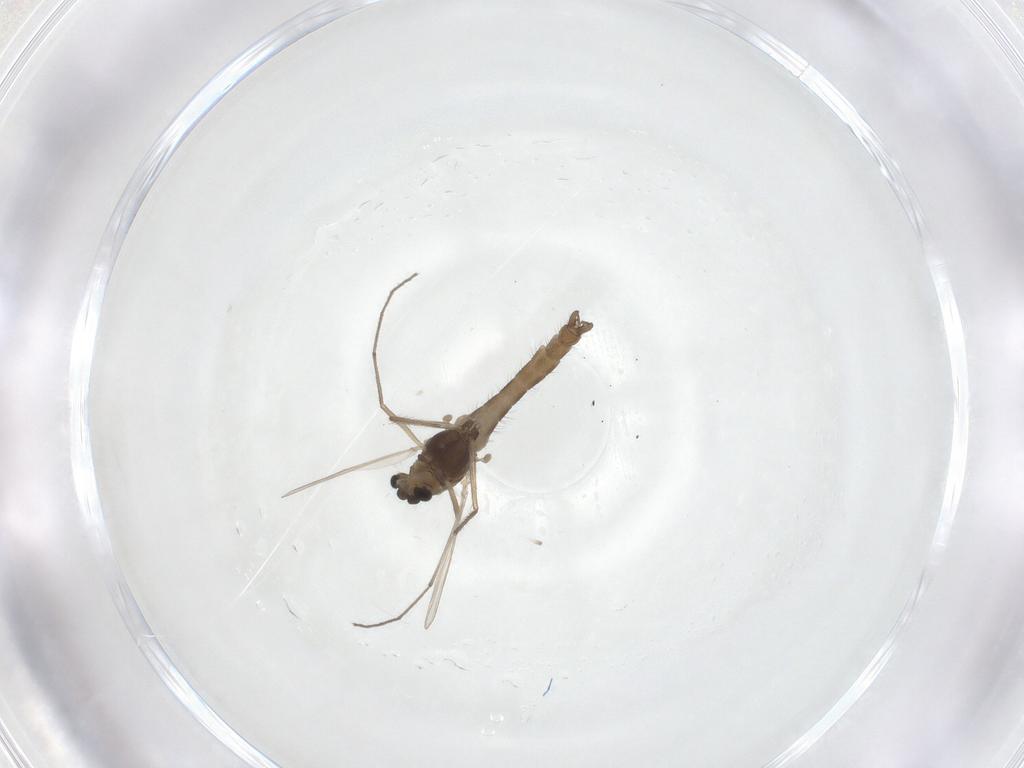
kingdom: Animalia
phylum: Arthropoda
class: Insecta
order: Diptera
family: Chironomidae
